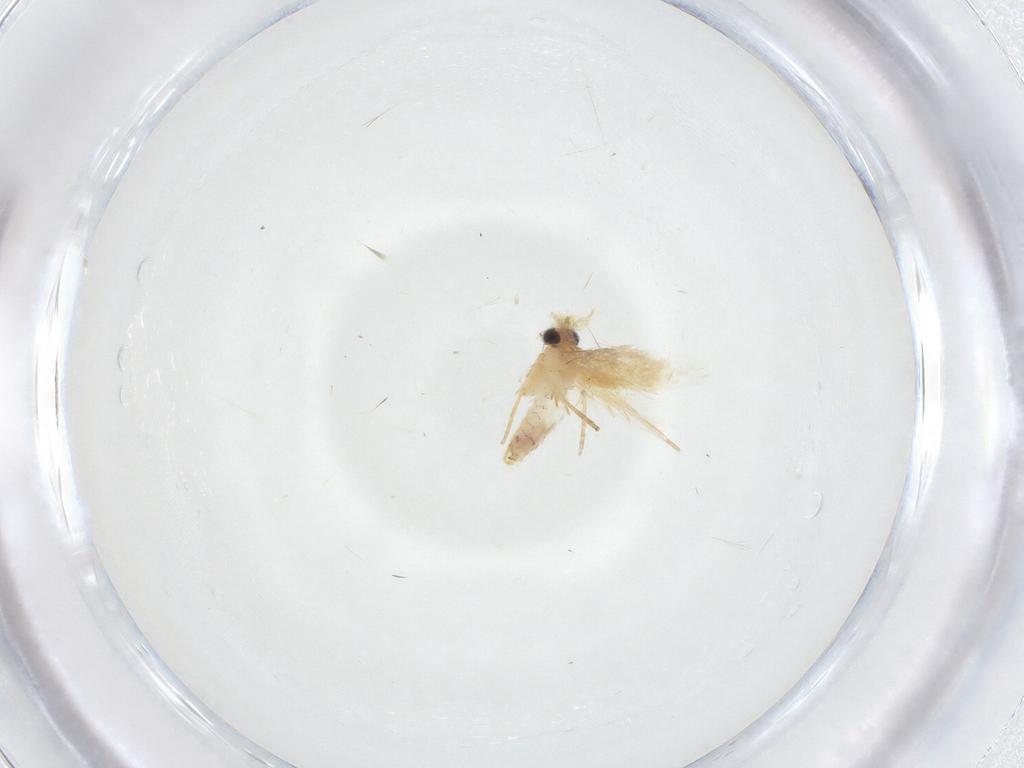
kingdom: Animalia
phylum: Arthropoda
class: Insecta
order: Lepidoptera
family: Nepticulidae
